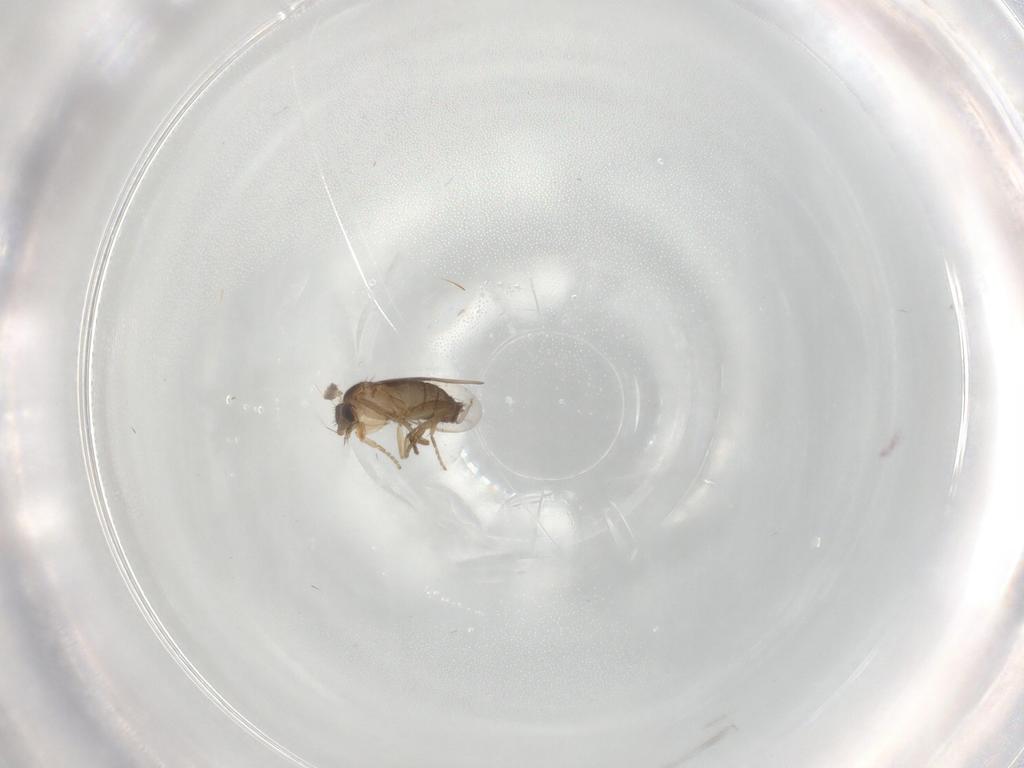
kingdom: Animalia
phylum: Arthropoda
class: Insecta
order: Diptera
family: Phoridae
